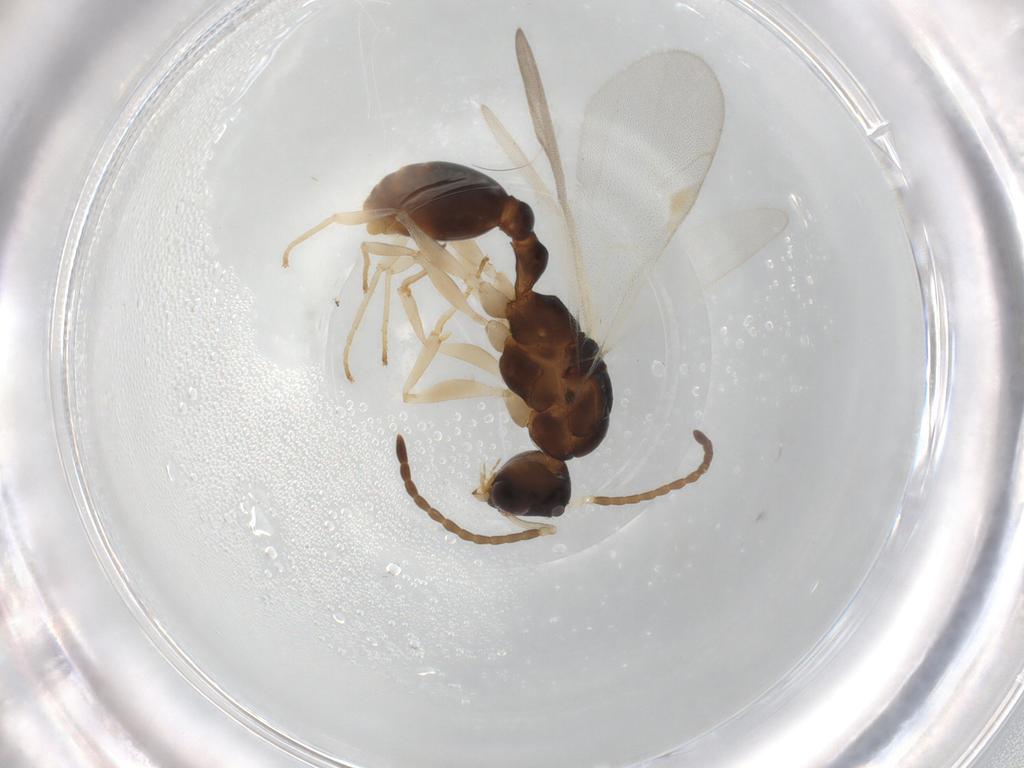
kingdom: Animalia
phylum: Arthropoda
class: Insecta
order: Hymenoptera
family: Formicidae
